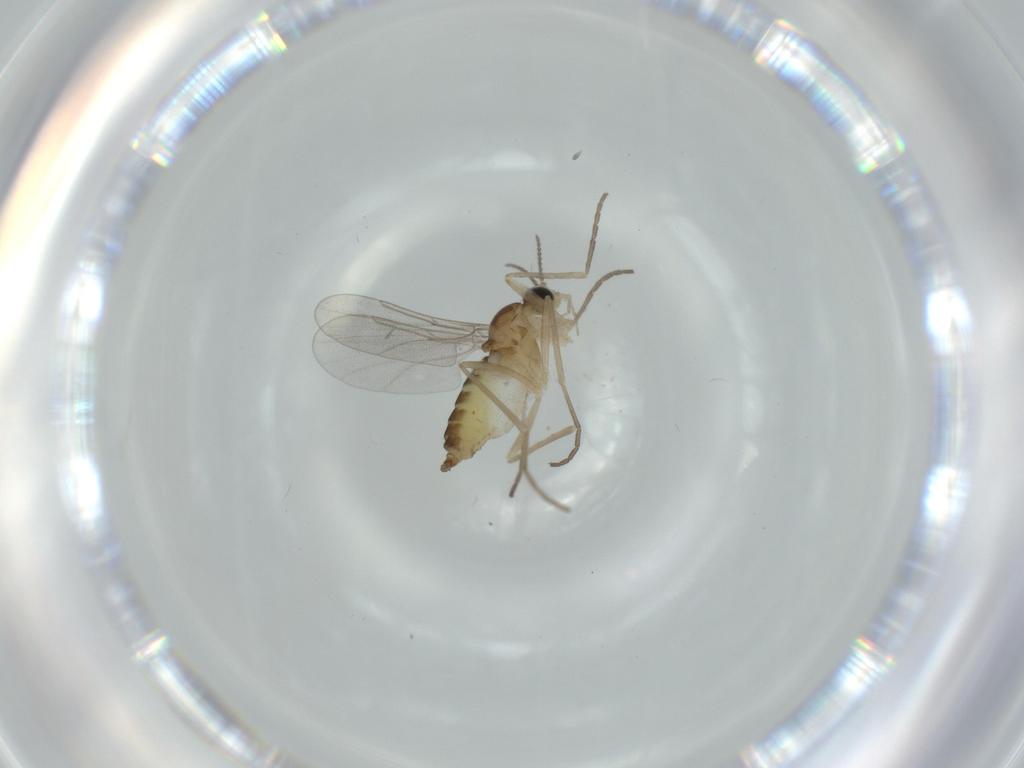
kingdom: Animalia
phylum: Arthropoda
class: Insecta
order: Diptera
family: Cecidomyiidae
